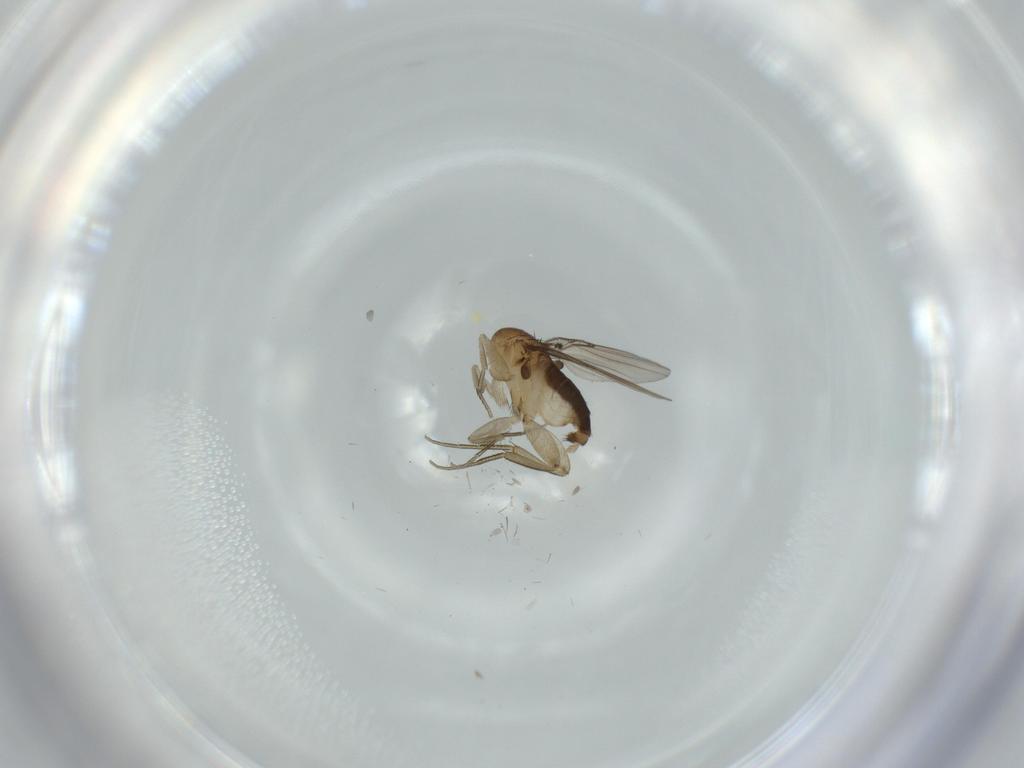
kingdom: Animalia
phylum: Arthropoda
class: Insecta
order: Diptera
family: Phoridae
